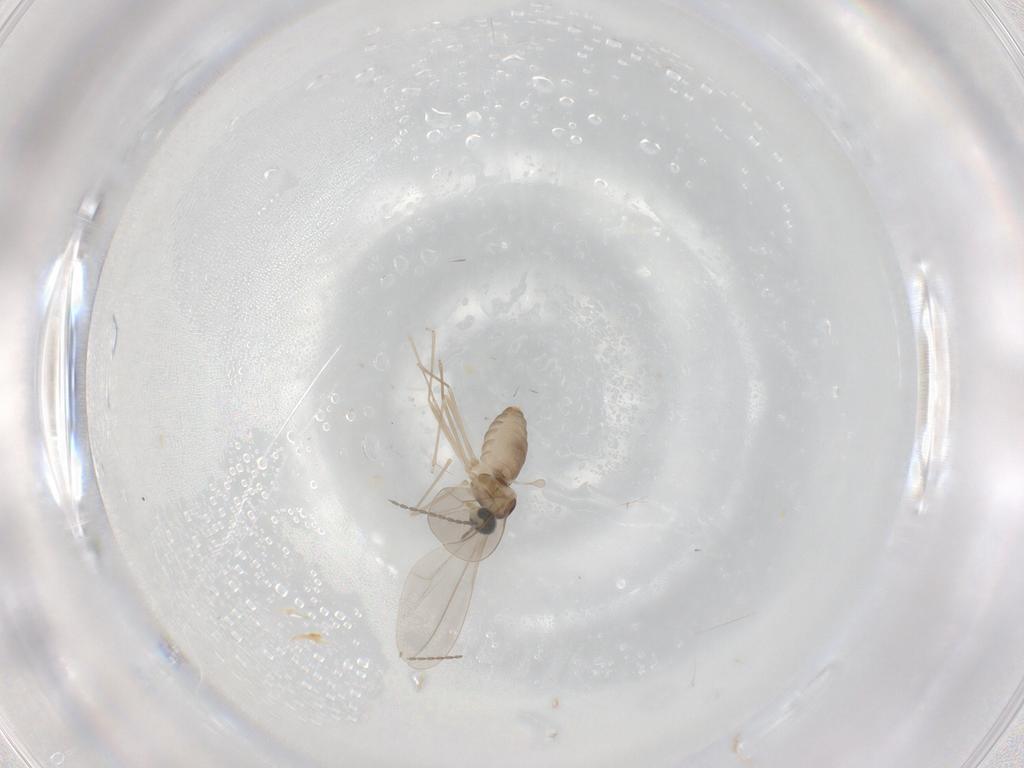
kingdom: Animalia
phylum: Arthropoda
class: Insecta
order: Diptera
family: Cecidomyiidae
